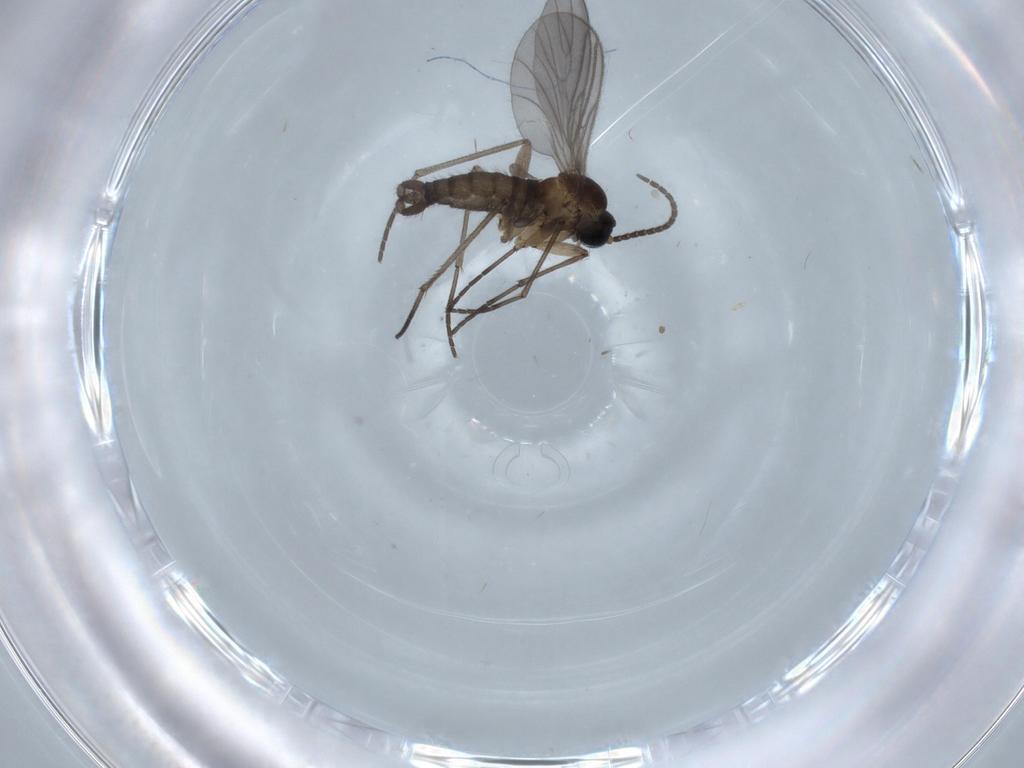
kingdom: Animalia
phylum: Arthropoda
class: Insecta
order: Diptera
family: Sciaridae
